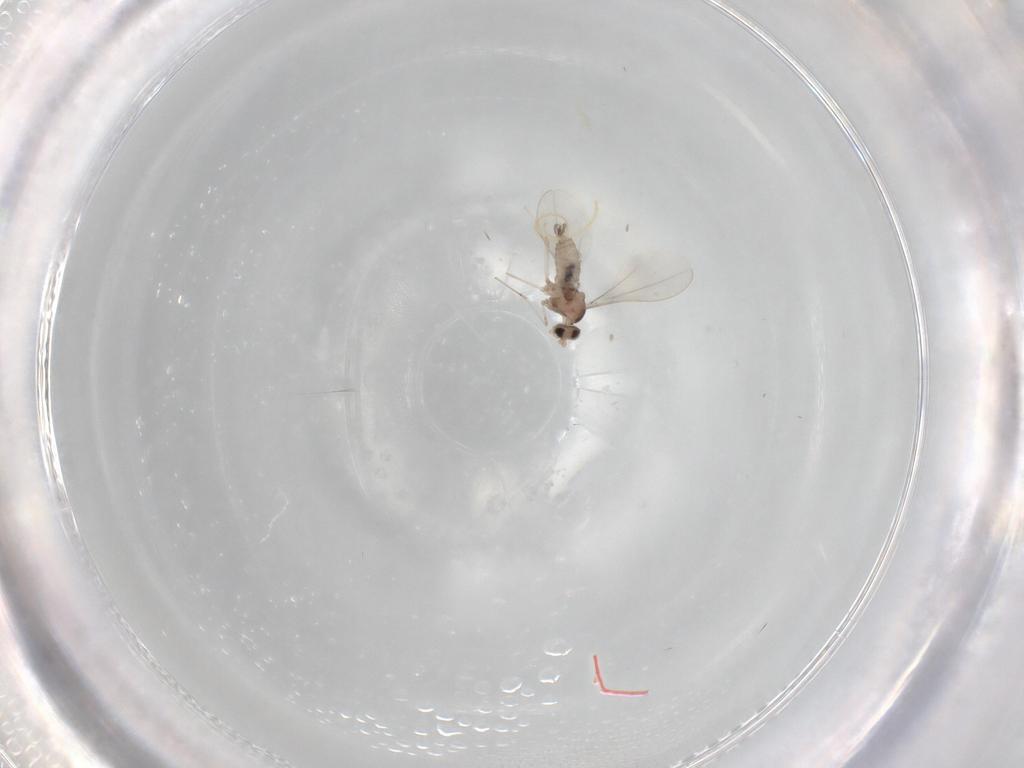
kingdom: Animalia
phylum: Arthropoda
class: Insecta
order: Diptera
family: Cecidomyiidae
